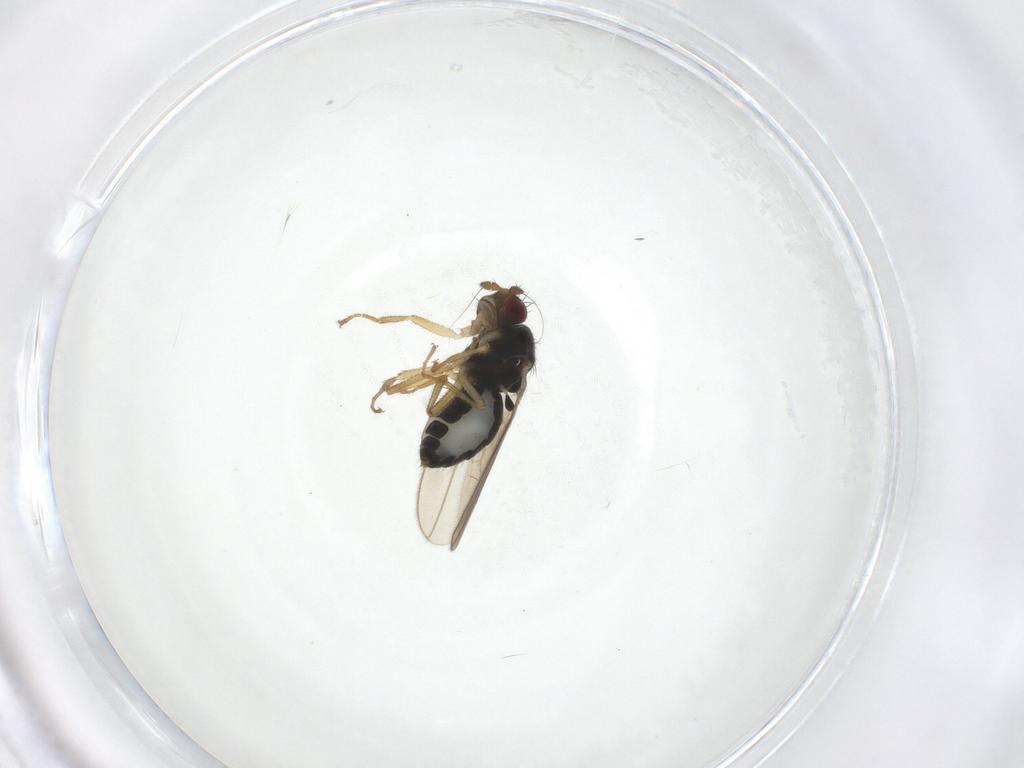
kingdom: Animalia
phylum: Arthropoda
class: Insecta
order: Diptera
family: Sphaeroceridae
